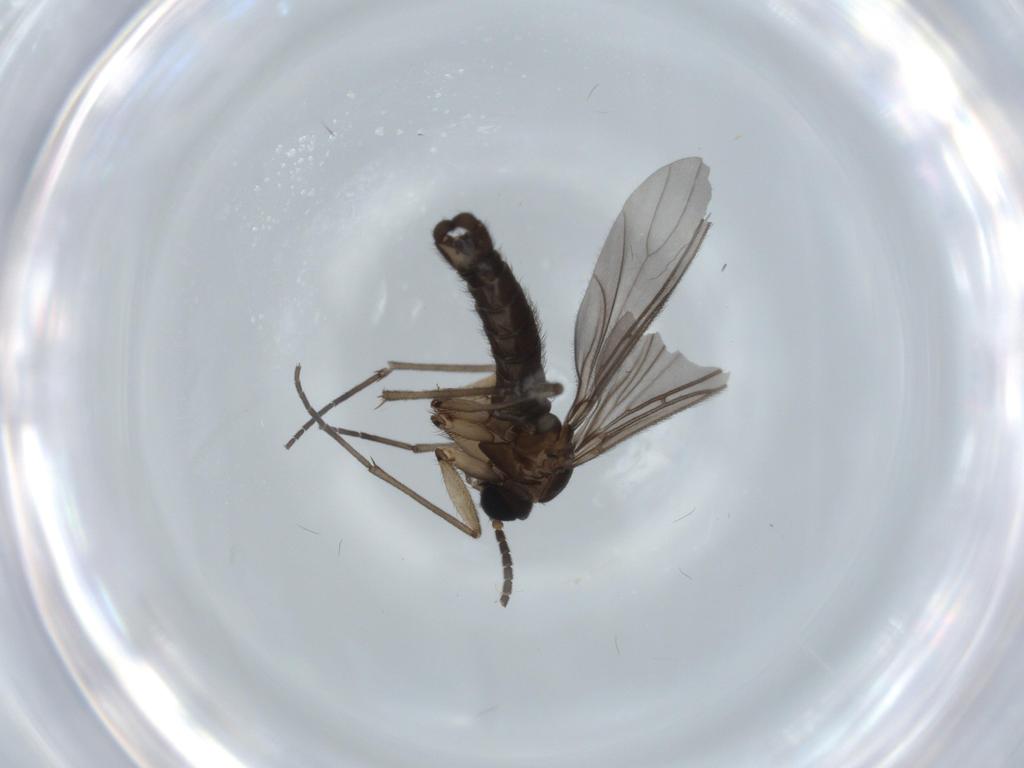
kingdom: Animalia
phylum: Arthropoda
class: Insecta
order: Diptera
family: Sciaridae
